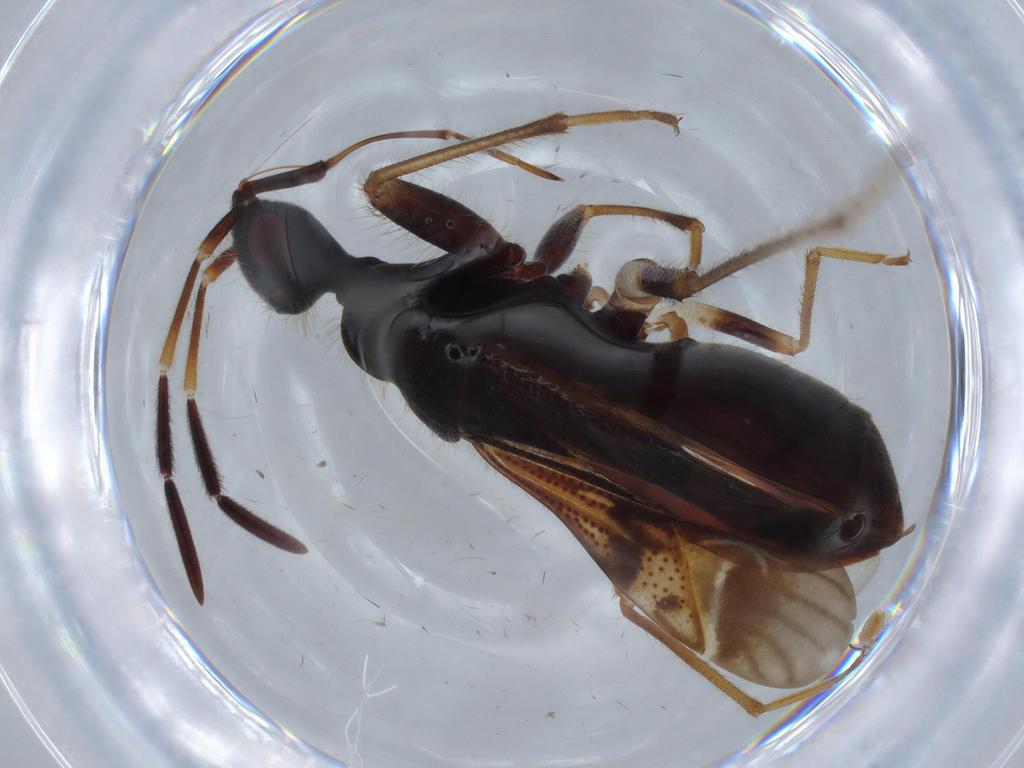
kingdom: Animalia
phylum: Arthropoda
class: Insecta
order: Hemiptera
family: Rhyparochromidae
